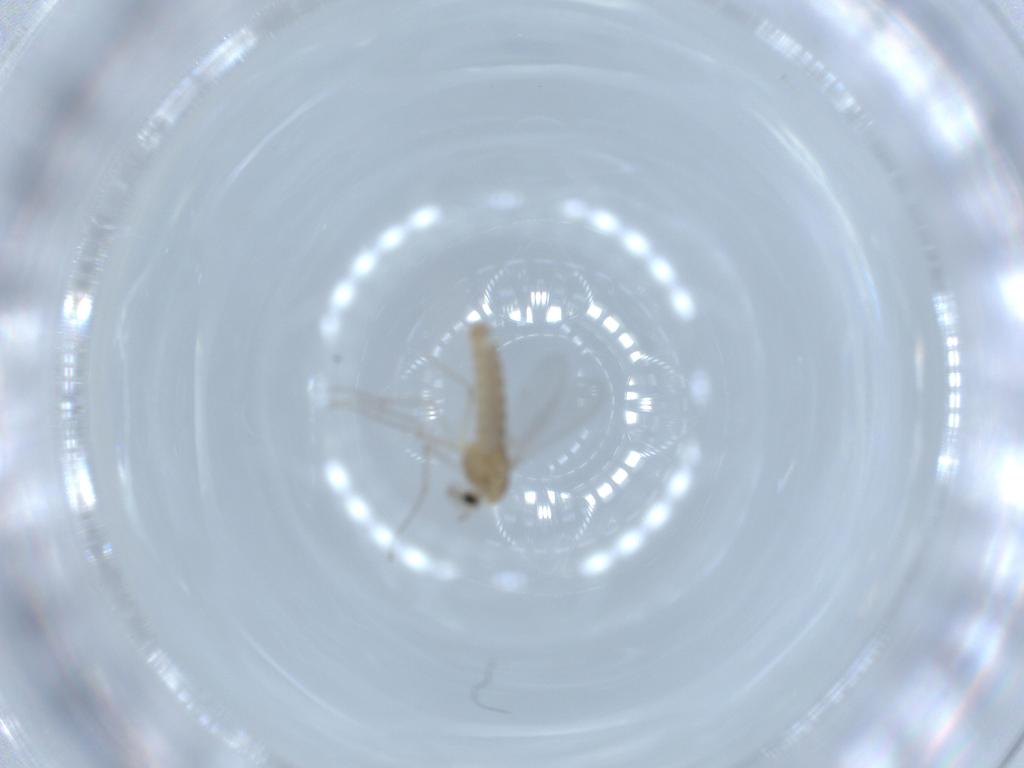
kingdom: Animalia
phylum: Arthropoda
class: Insecta
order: Diptera
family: Chironomidae
